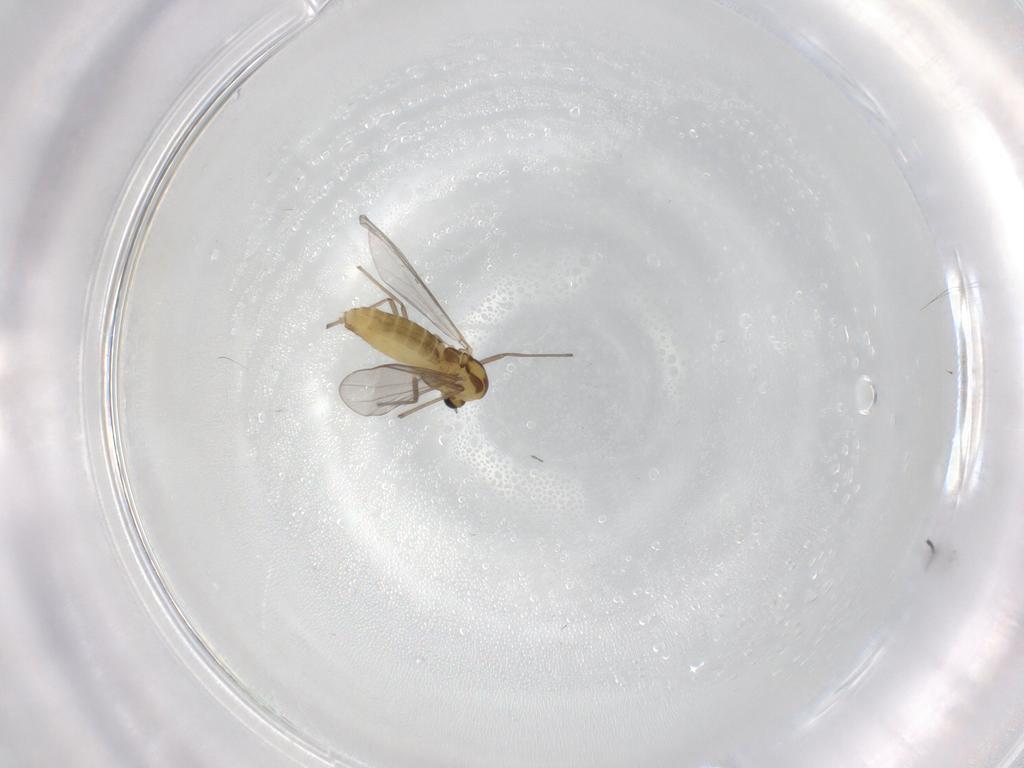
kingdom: Animalia
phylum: Arthropoda
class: Insecta
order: Diptera
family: Chironomidae
